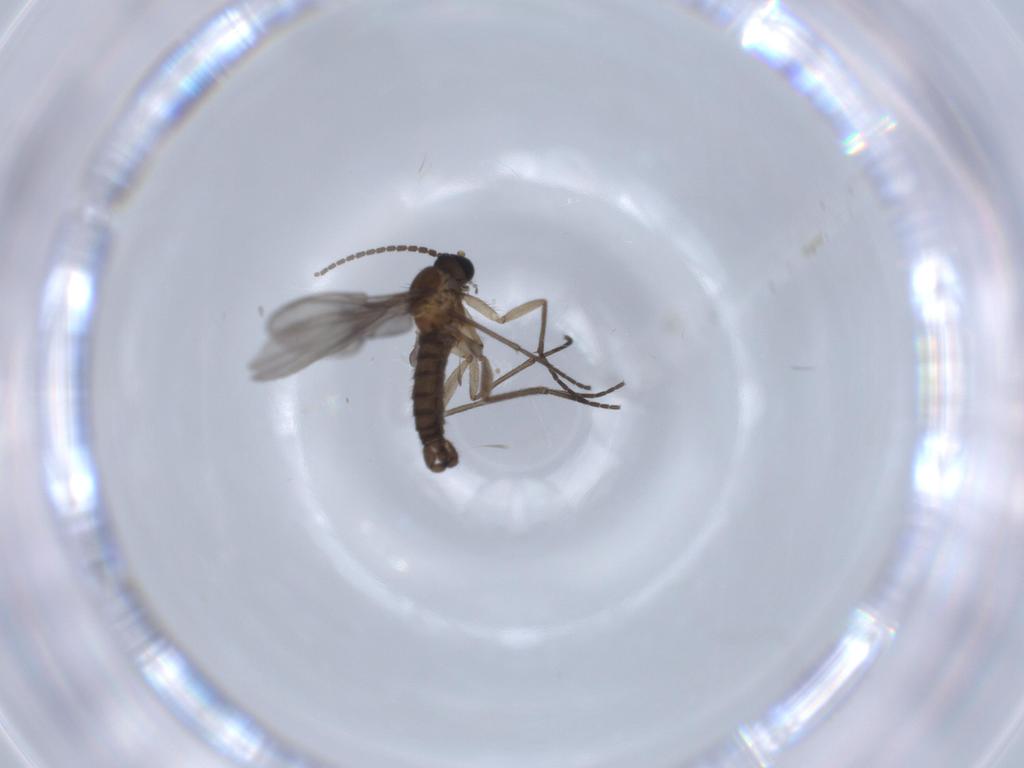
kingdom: Animalia
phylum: Arthropoda
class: Insecta
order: Diptera
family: Sciaridae
